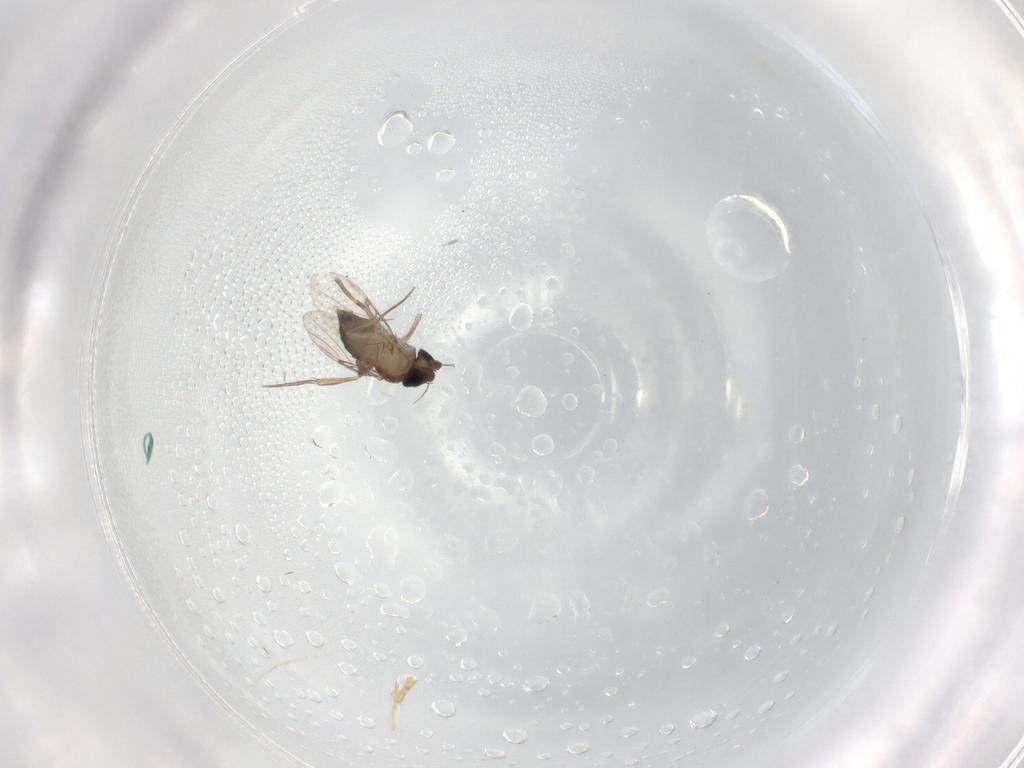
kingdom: Animalia
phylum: Arthropoda
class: Insecta
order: Diptera
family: Phoridae
